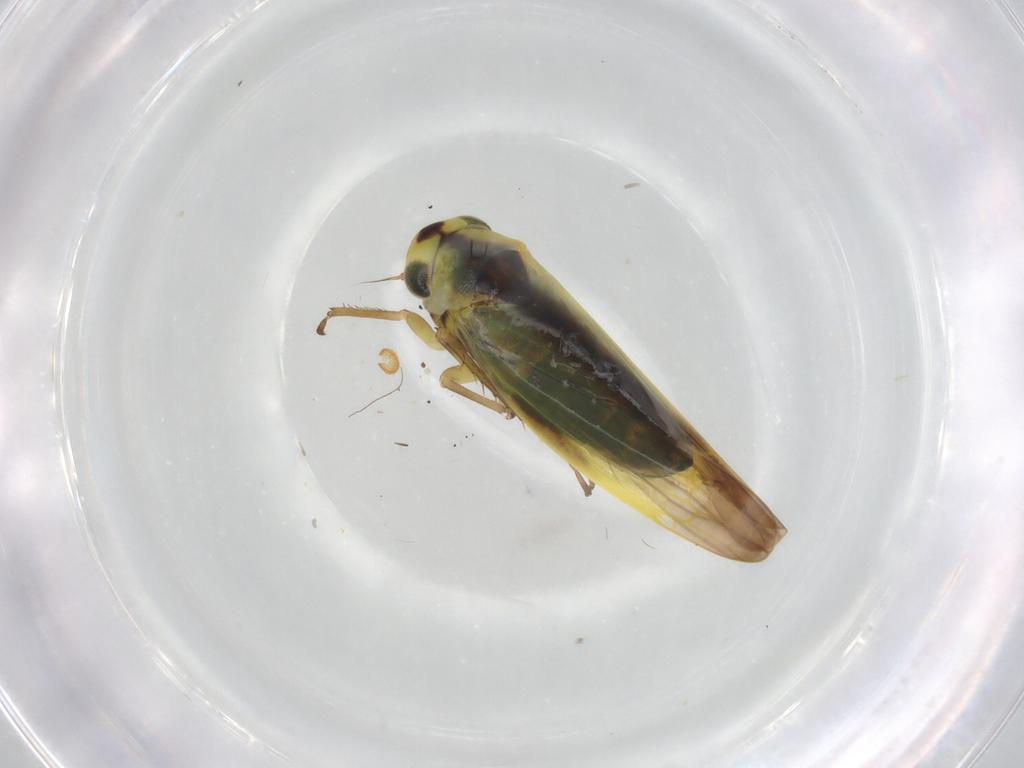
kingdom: Animalia
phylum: Arthropoda
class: Insecta
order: Hemiptera
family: Cicadellidae
